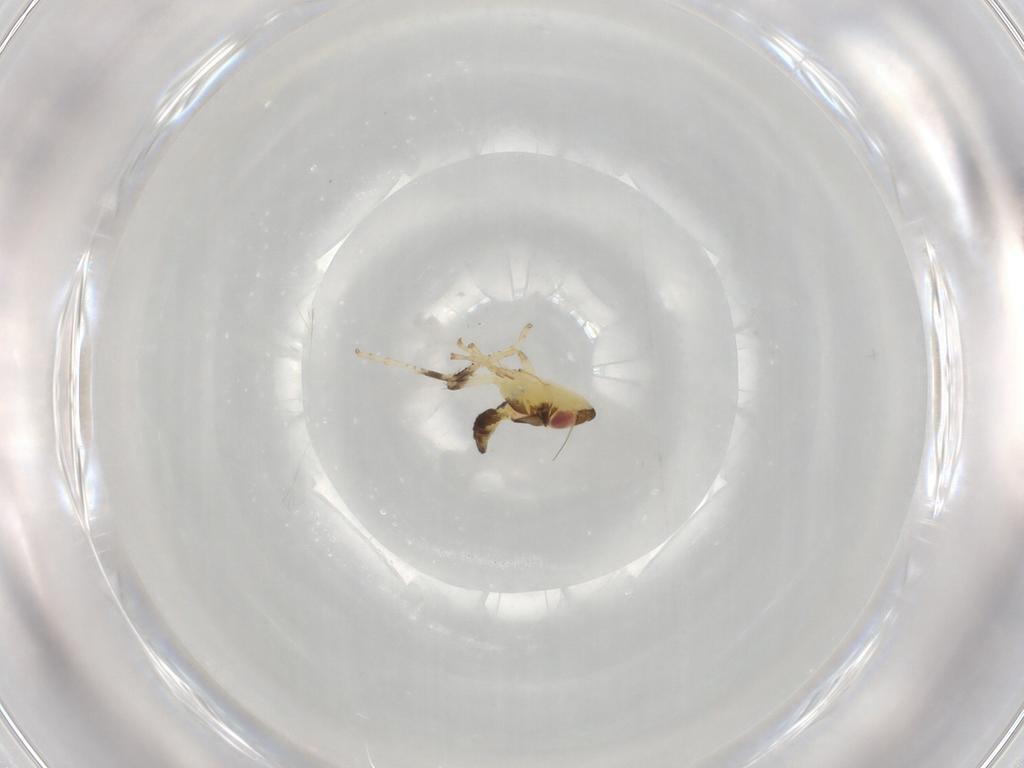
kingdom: Animalia
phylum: Arthropoda
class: Insecta
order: Hemiptera
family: Cicadellidae
